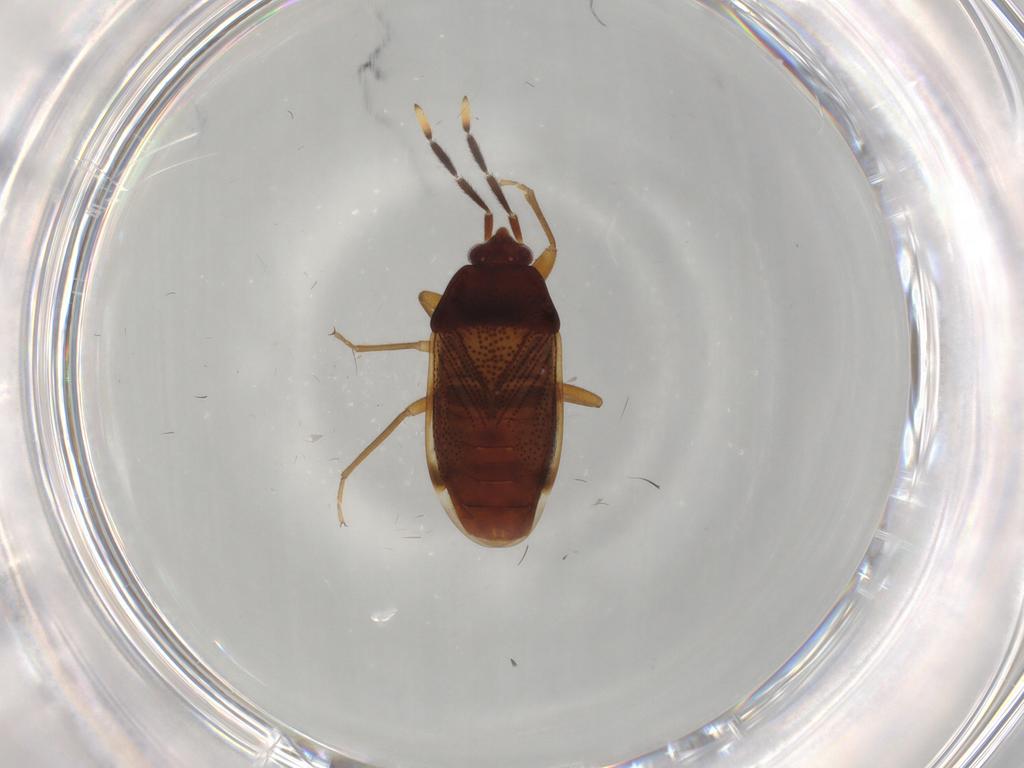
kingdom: Animalia
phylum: Arthropoda
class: Insecta
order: Hemiptera
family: Rhyparochromidae
